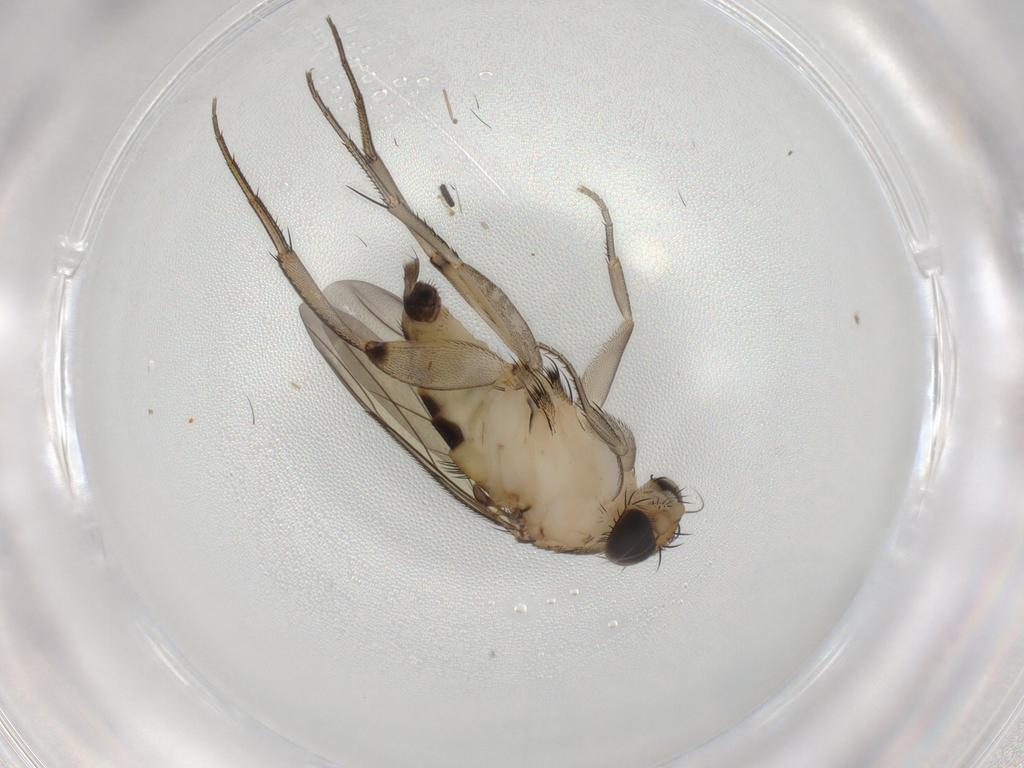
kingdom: Animalia
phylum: Arthropoda
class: Insecta
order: Diptera
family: Phoridae
